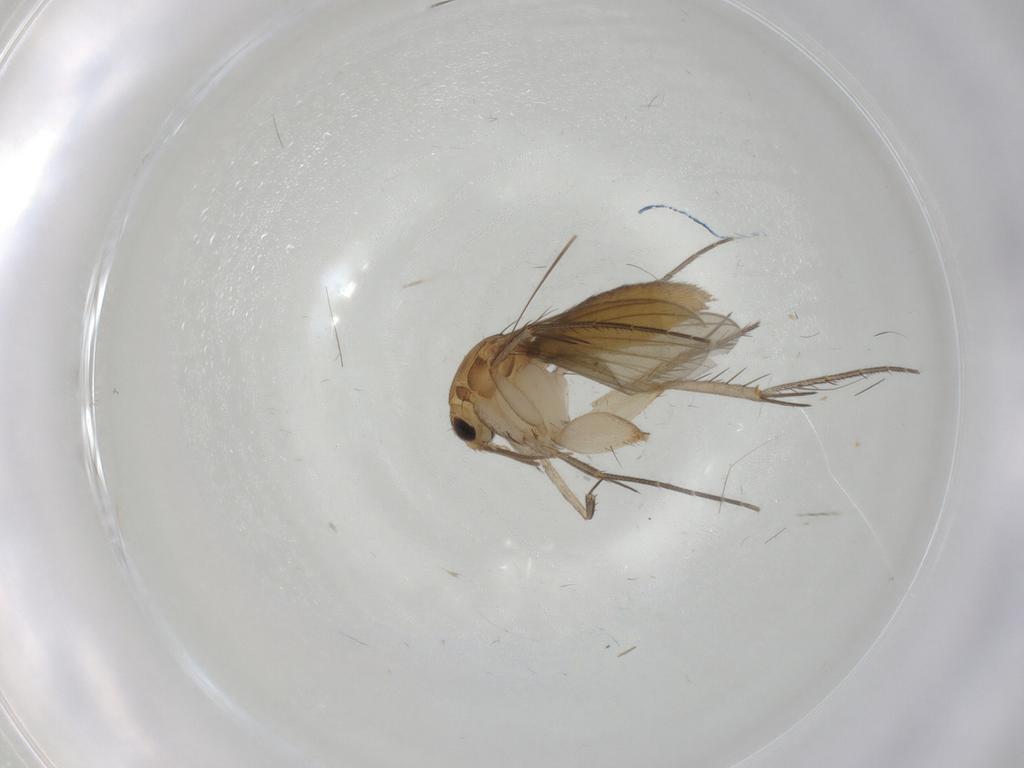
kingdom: Animalia
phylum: Arthropoda
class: Insecta
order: Diptera
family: Mycetophilidae
